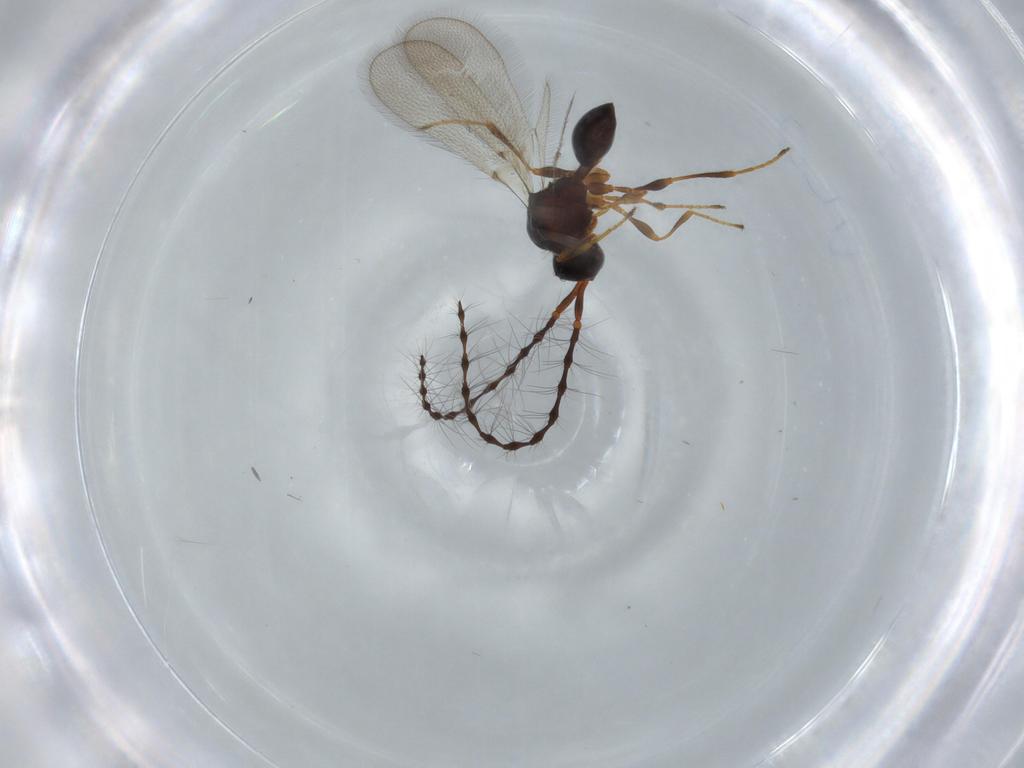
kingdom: Animalia
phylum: Arthropoda
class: Insecta
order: Hymenoptera
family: Diapriidae
